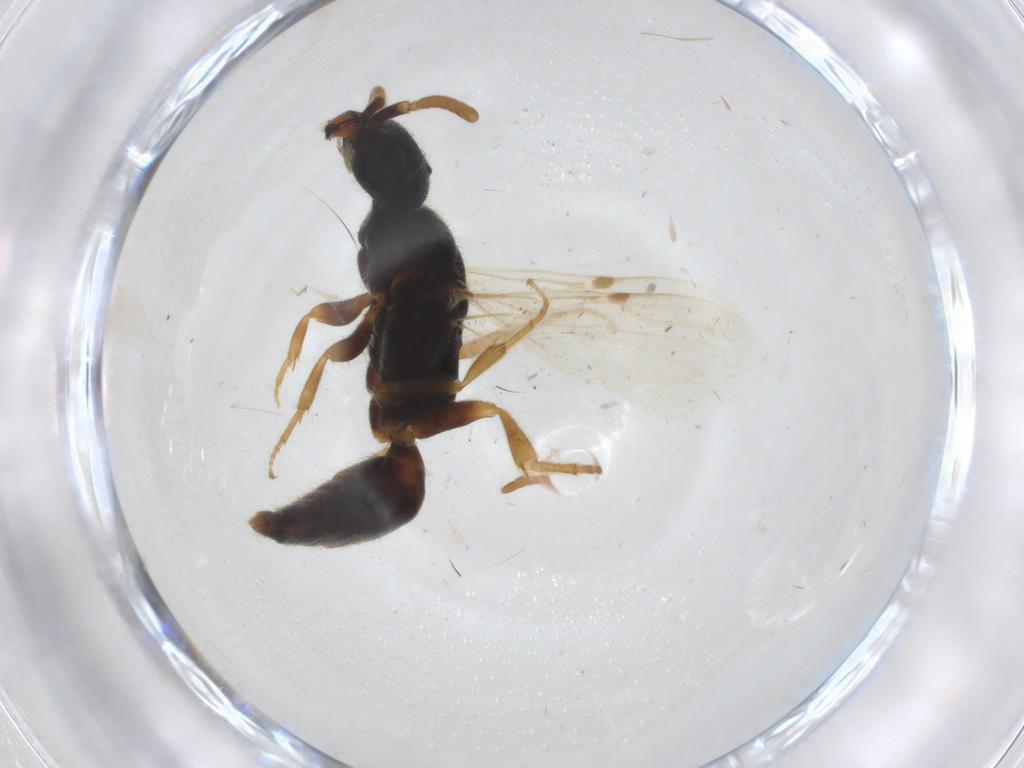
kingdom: Animalia
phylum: Arthropoda
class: Insecta
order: Hymenoptera
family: Bethylidae
